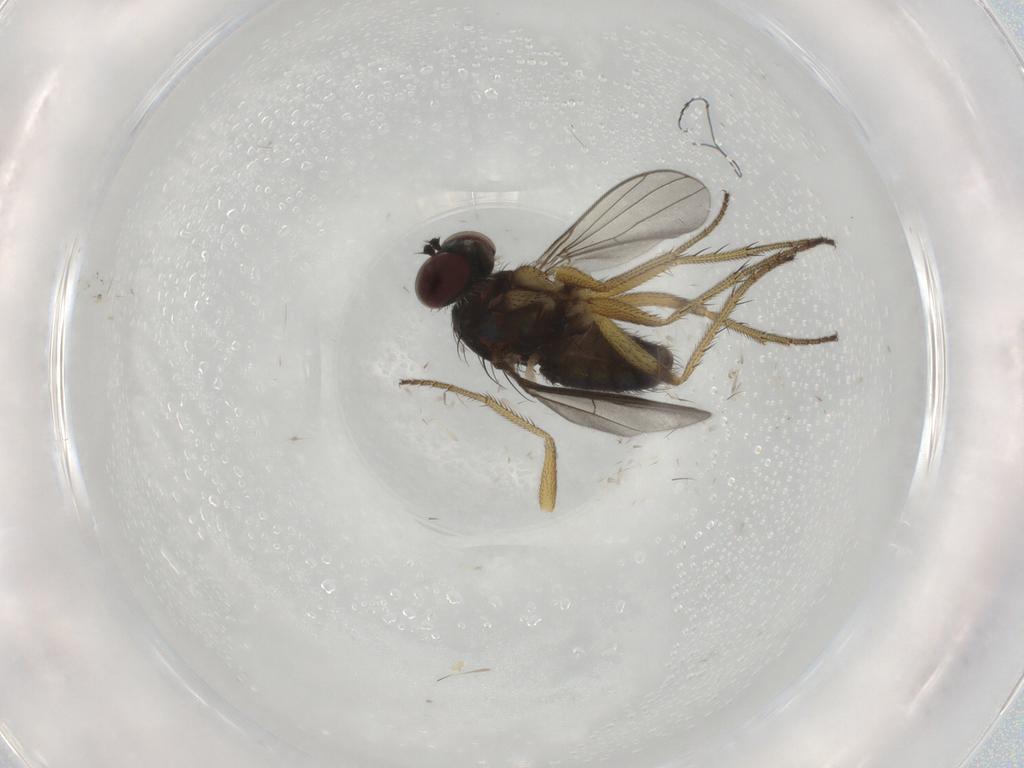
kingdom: Animalia
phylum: Arthropoda
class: Insecta
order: Diptera
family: Dolichopodidae
